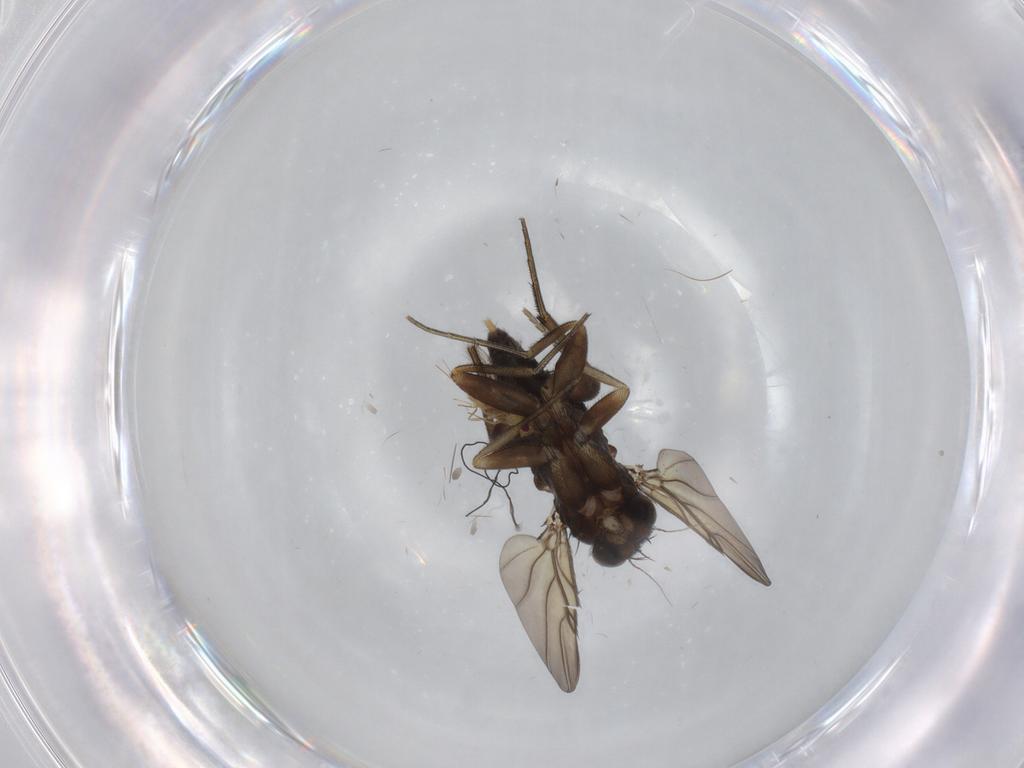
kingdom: Animalia
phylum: Arthropoda
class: Insecta
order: Diptera
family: Phoridae
